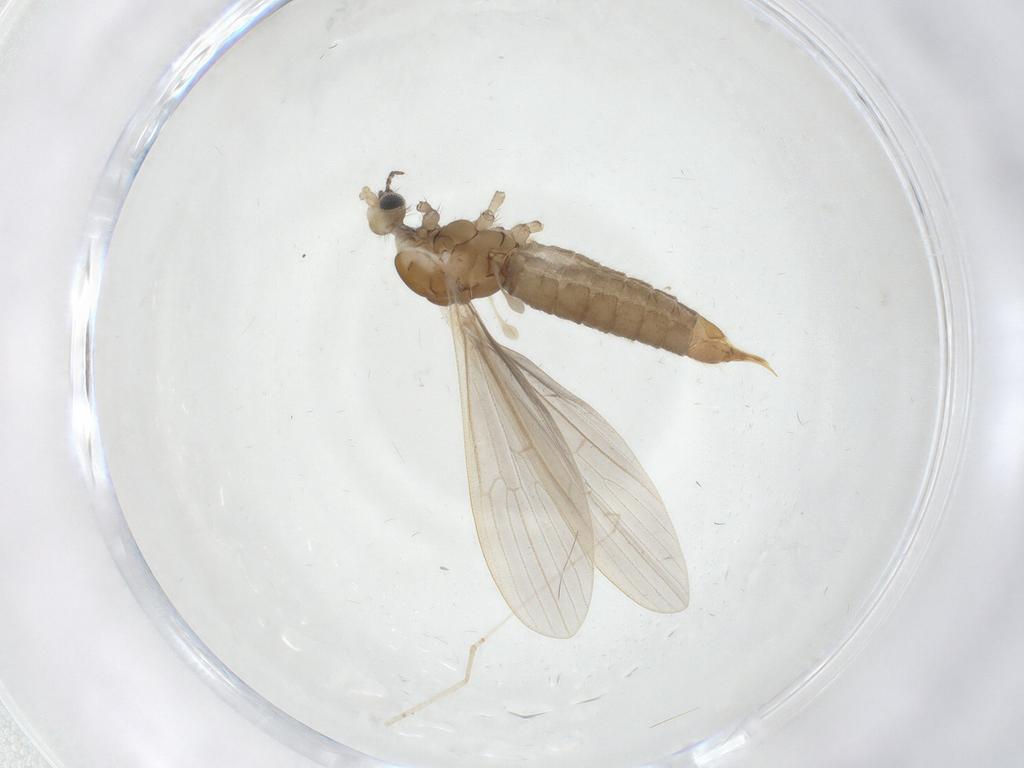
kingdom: Animalia
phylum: Arthropoda
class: Insecta
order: Diptera
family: Limoniidae
